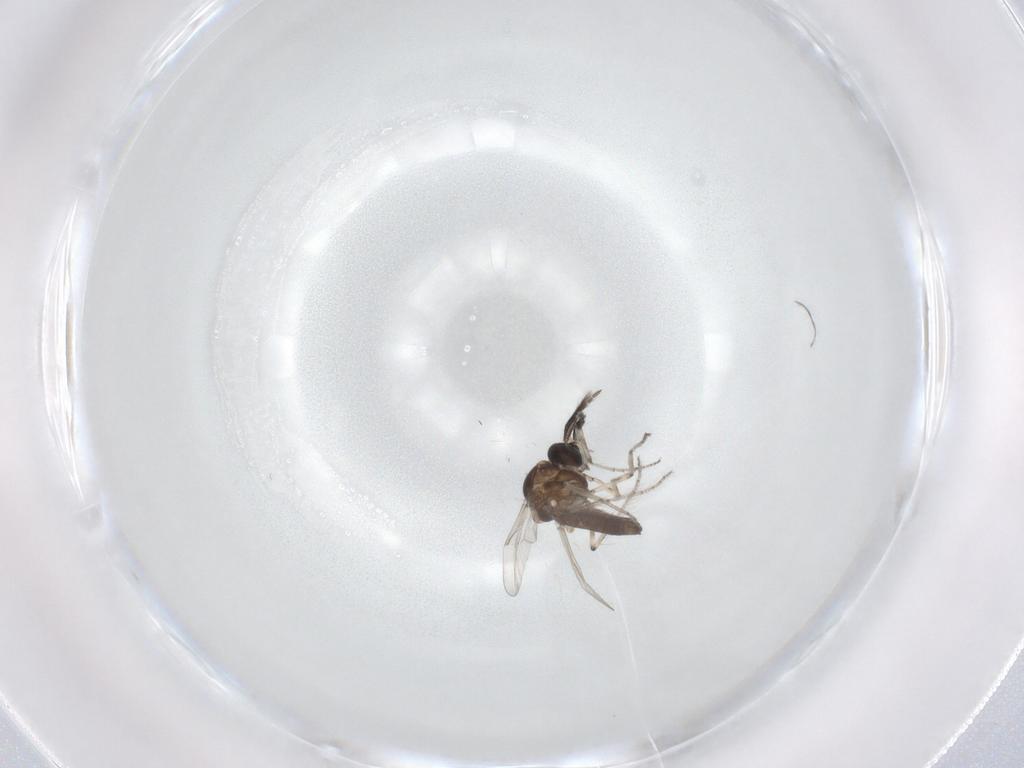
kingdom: Animalia
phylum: Arthropoda
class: Insecta
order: Diptera
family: Ceratopogonidae
